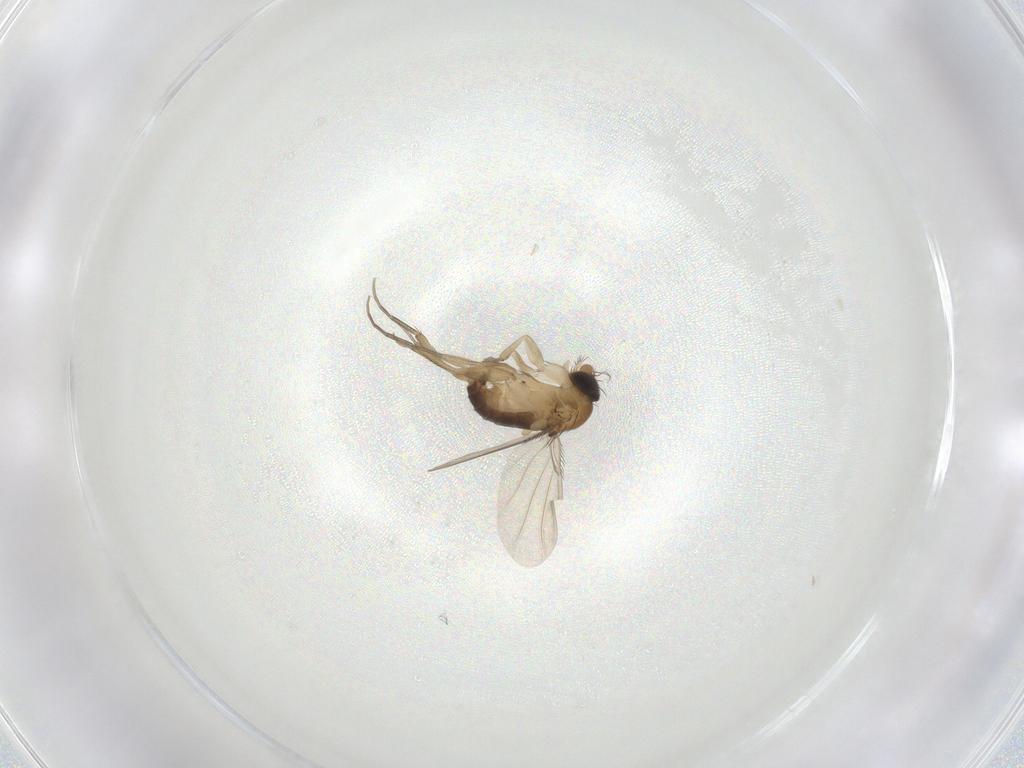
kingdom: Animalia
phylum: Arthropoda
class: Insecta
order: Diptera
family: Phoridae
